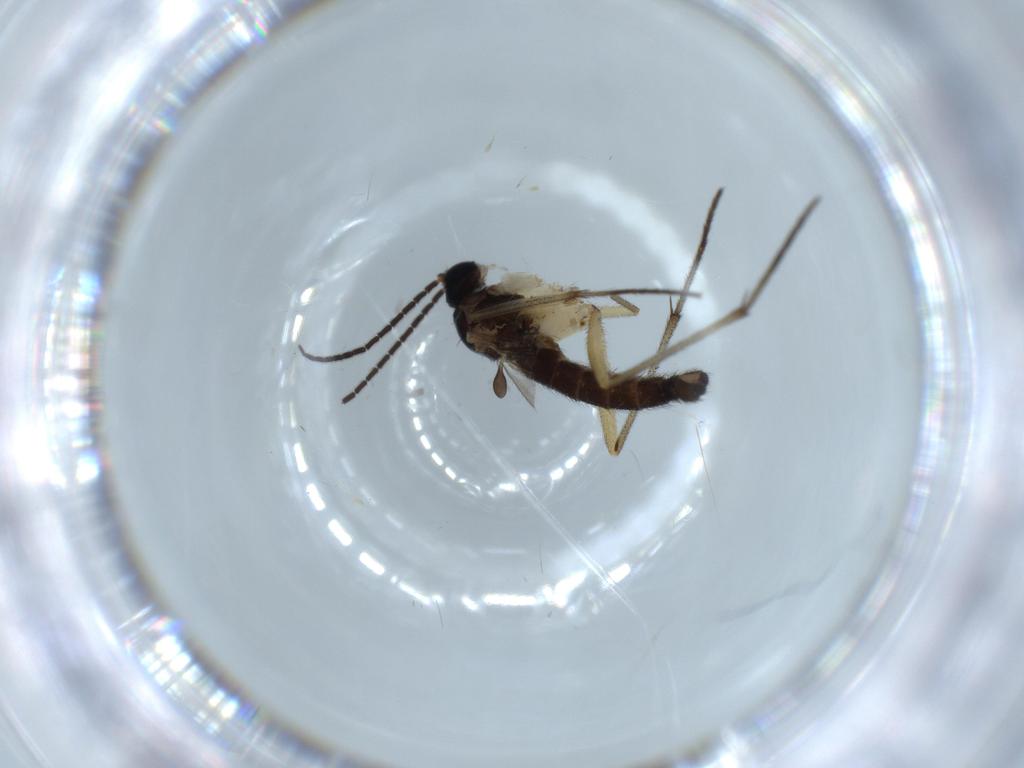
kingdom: Animalia
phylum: Arthropoda
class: Insecta
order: Diptera
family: Sciaridae
